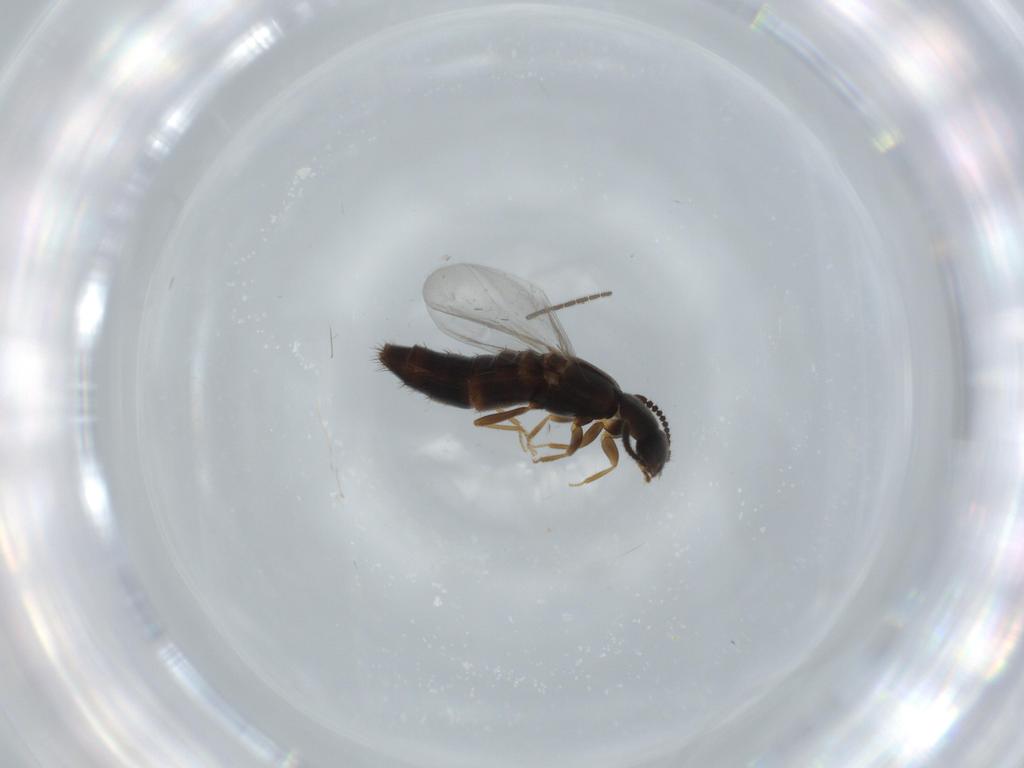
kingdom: Animalia
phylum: Arthropoda
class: Insecta
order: Coleoptera
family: Staphylinidae
